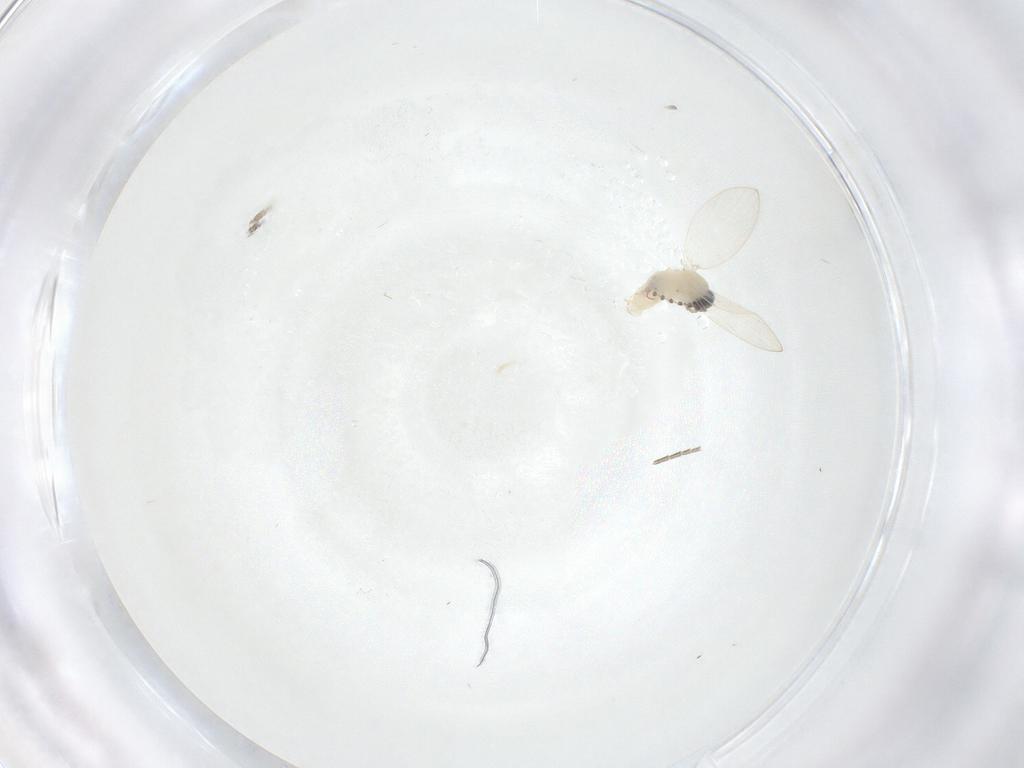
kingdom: Animalia
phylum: Arthropoda
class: Insecta
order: Diptera
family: Psychodidae
